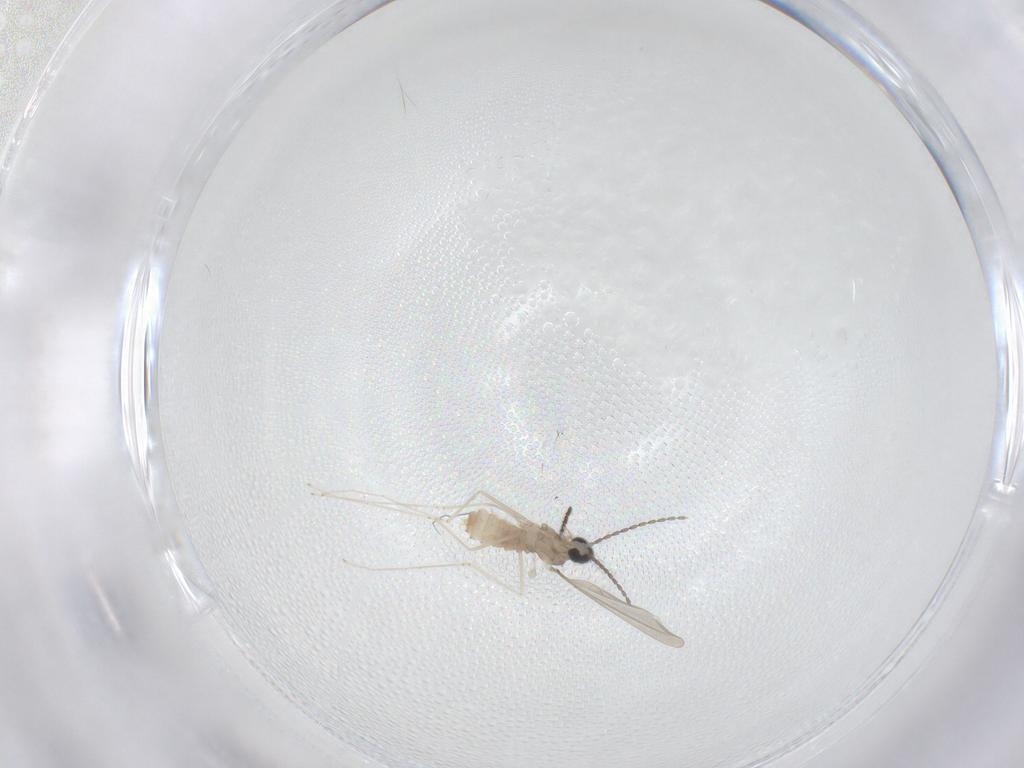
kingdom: Animalia
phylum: Arthropoda
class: Insecta
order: Diptera
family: Cecidomyiidae
